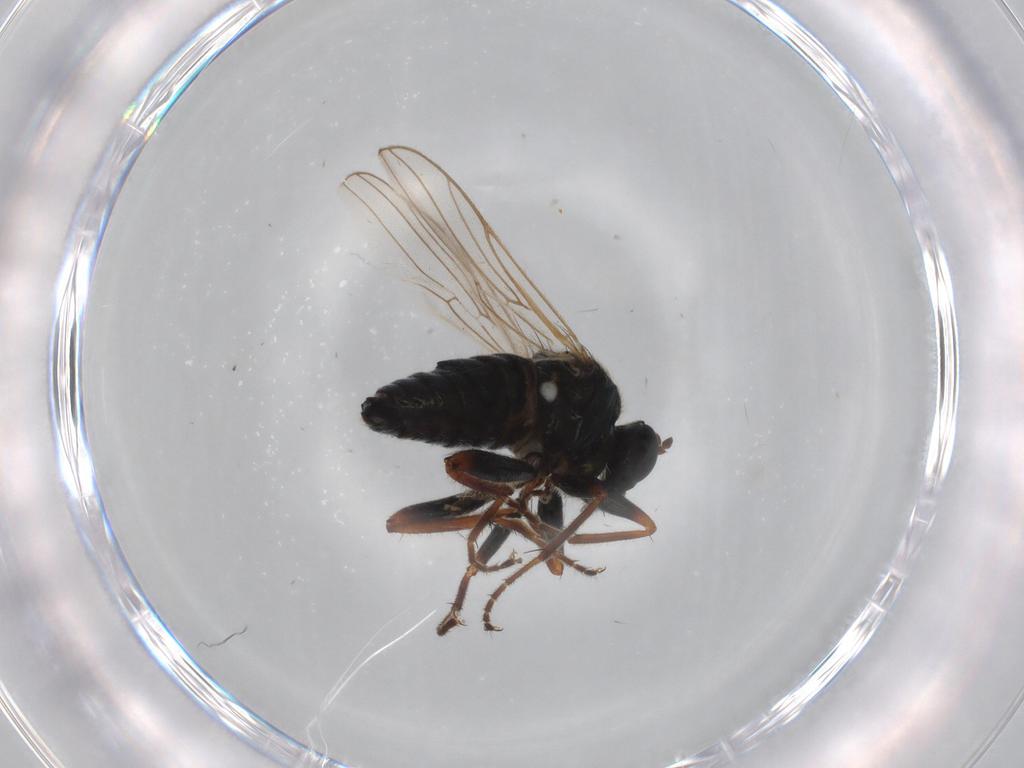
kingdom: Animalia
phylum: Arthropoda
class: Insecta
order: Diptera
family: Hybotidae
